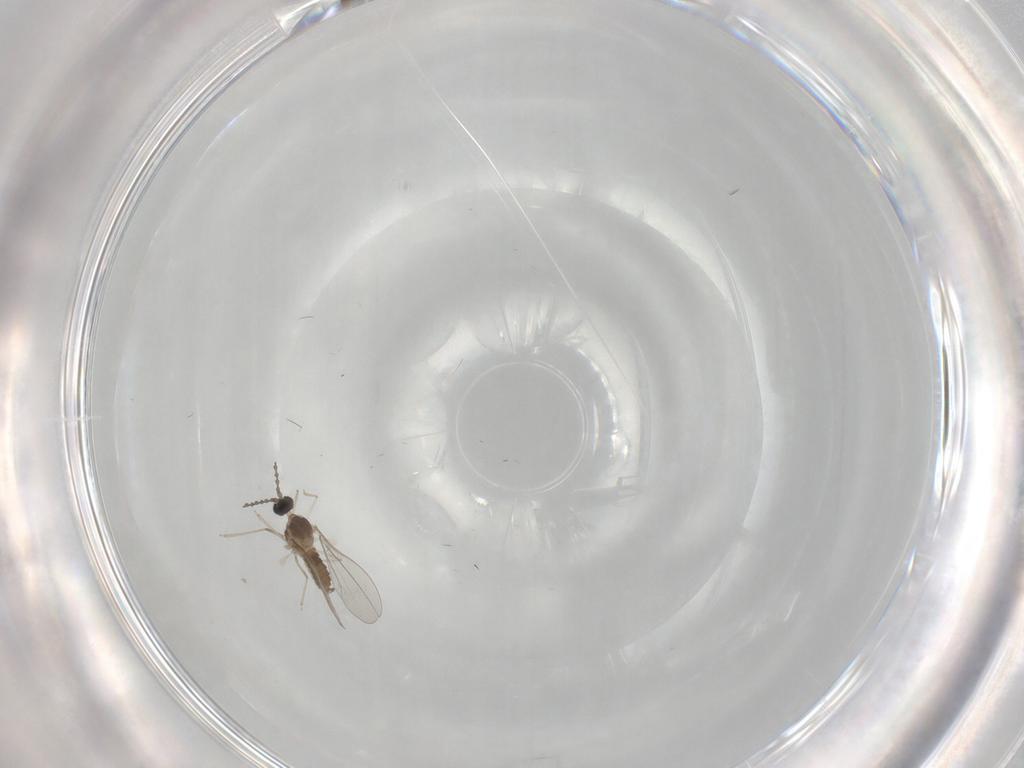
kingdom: Animalia
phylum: Arthropoda
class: Insecta
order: Diptera
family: Cecidomyiidae
